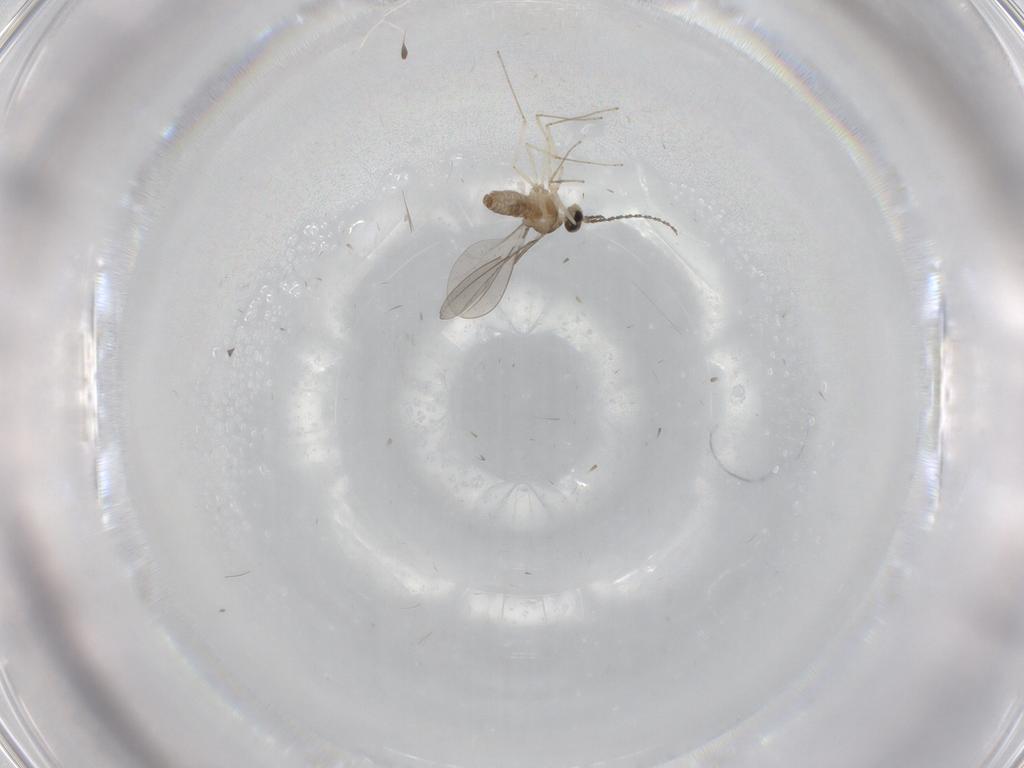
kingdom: Animalia
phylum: Arthropoda
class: Insecta
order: Diptera
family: Cecidomyiidae
